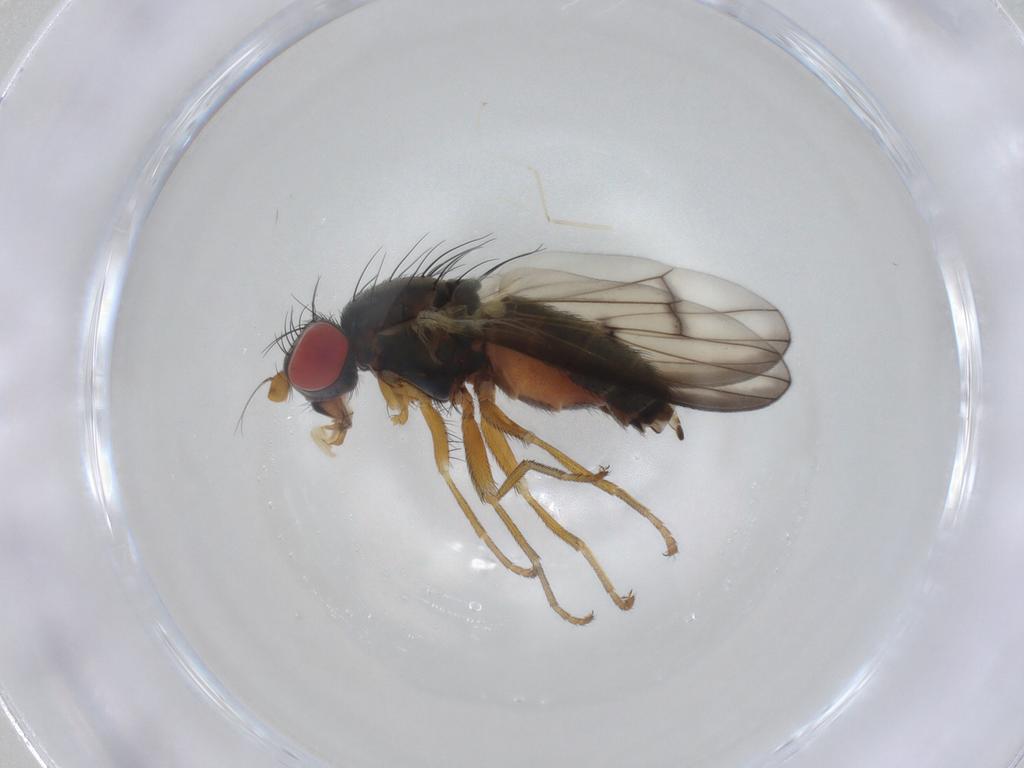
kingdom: Animalia
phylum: Arthropoda
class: Insecta
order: Diptera
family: Chamaemyiidae
